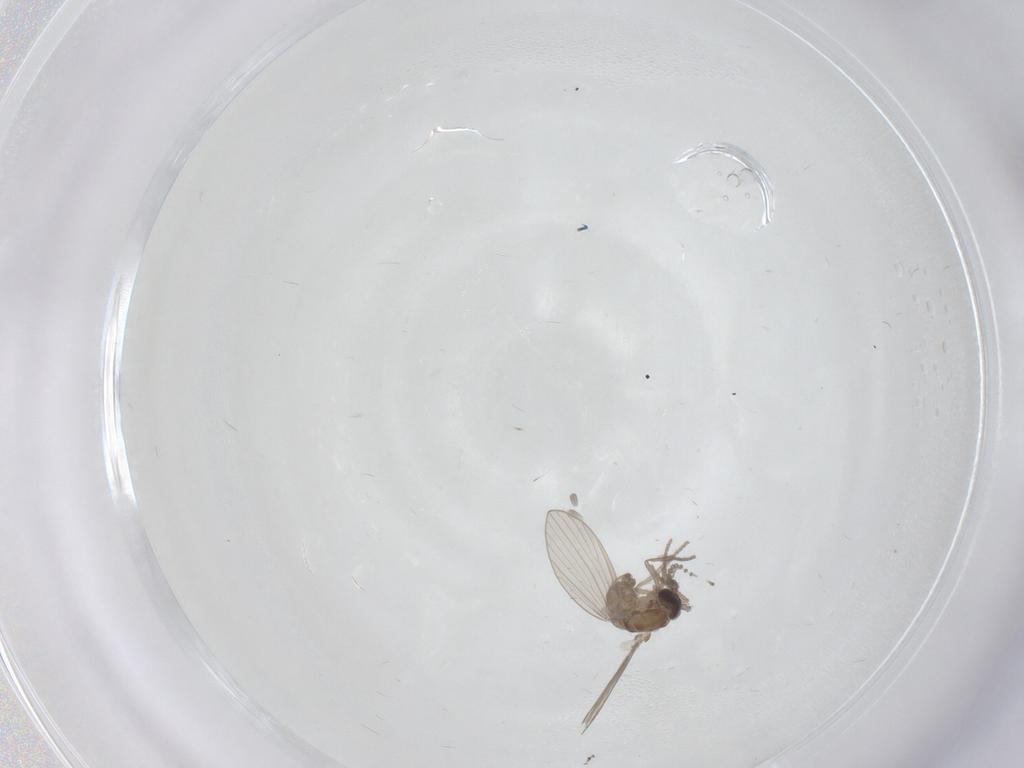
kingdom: Animalia
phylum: Arthropoda
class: Insecta
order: Diptera
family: Psychodidae
